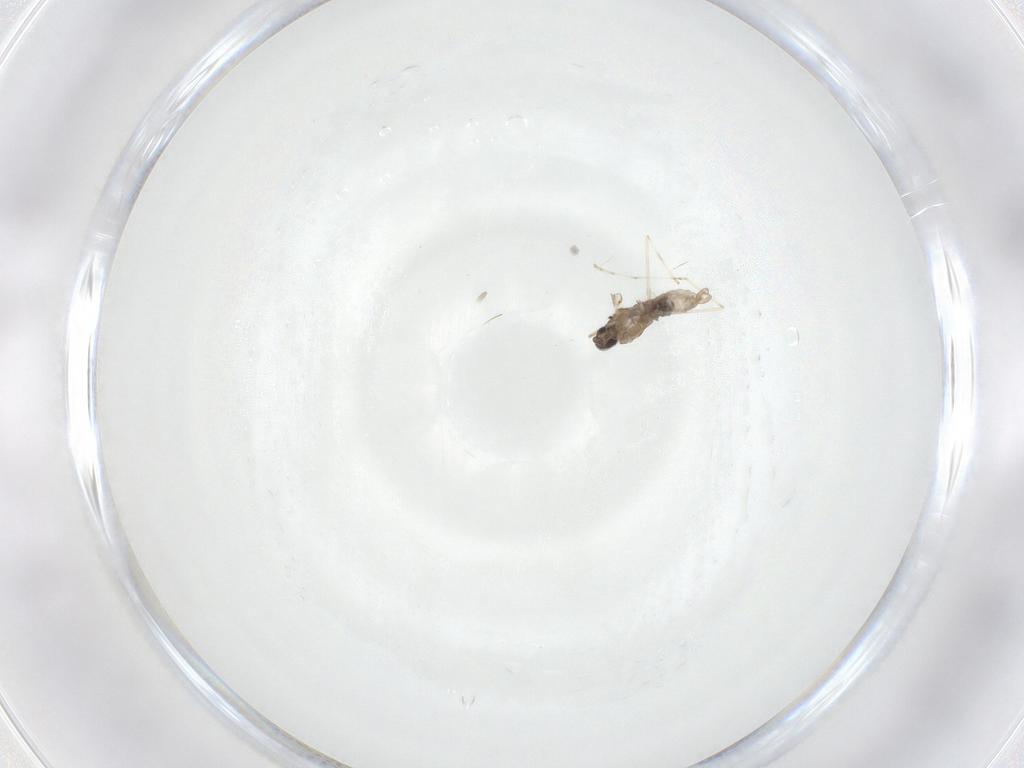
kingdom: Animalia
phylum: Arthropoda
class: Insecta
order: Diptera
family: Cecidomyiidae
